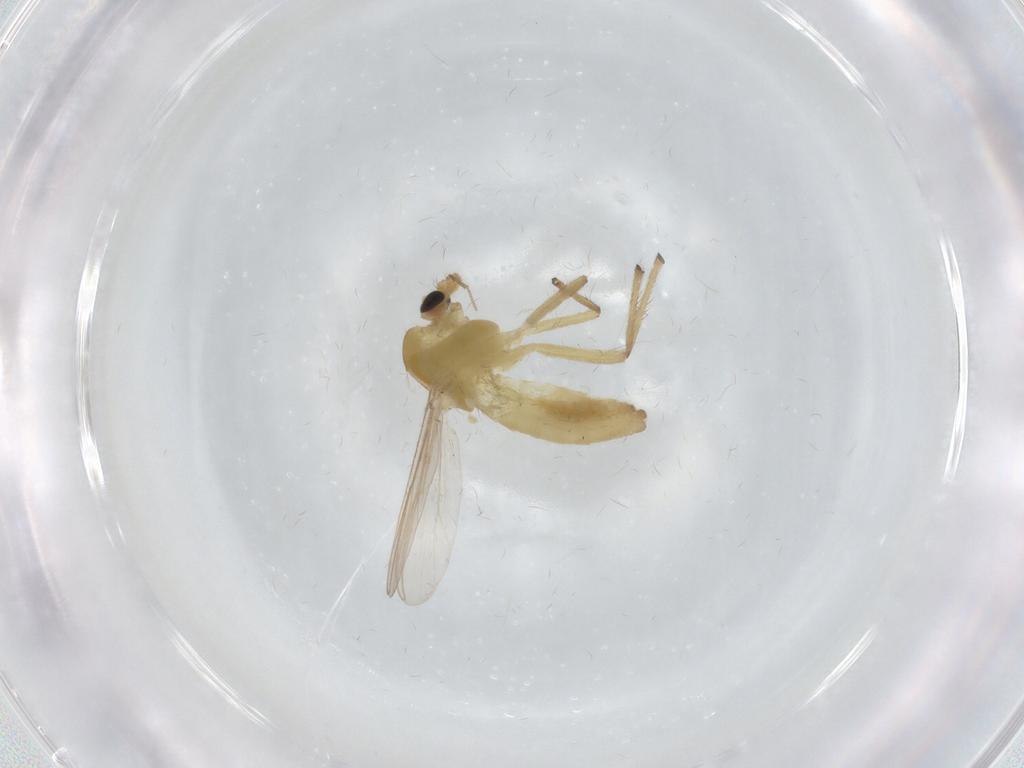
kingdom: Animalia
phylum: Arthropoda
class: Insecta
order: Diptera
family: Chironomidae
